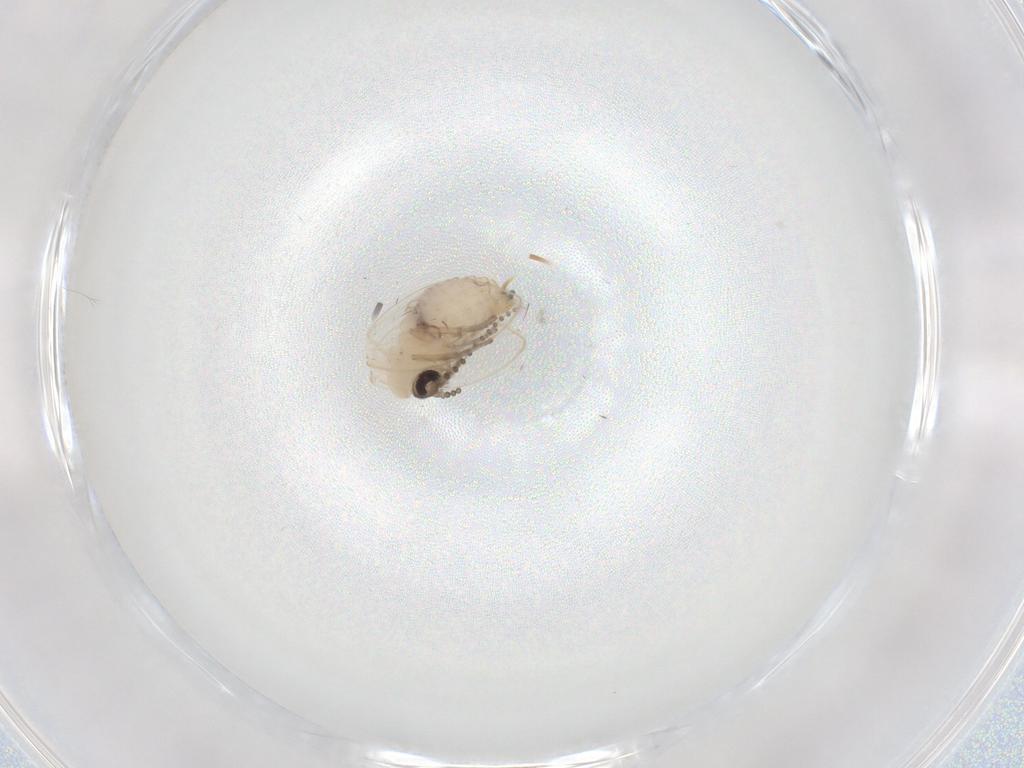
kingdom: Animalia
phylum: Arthropoda
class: Insecta
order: Diptera
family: Psychodidae
